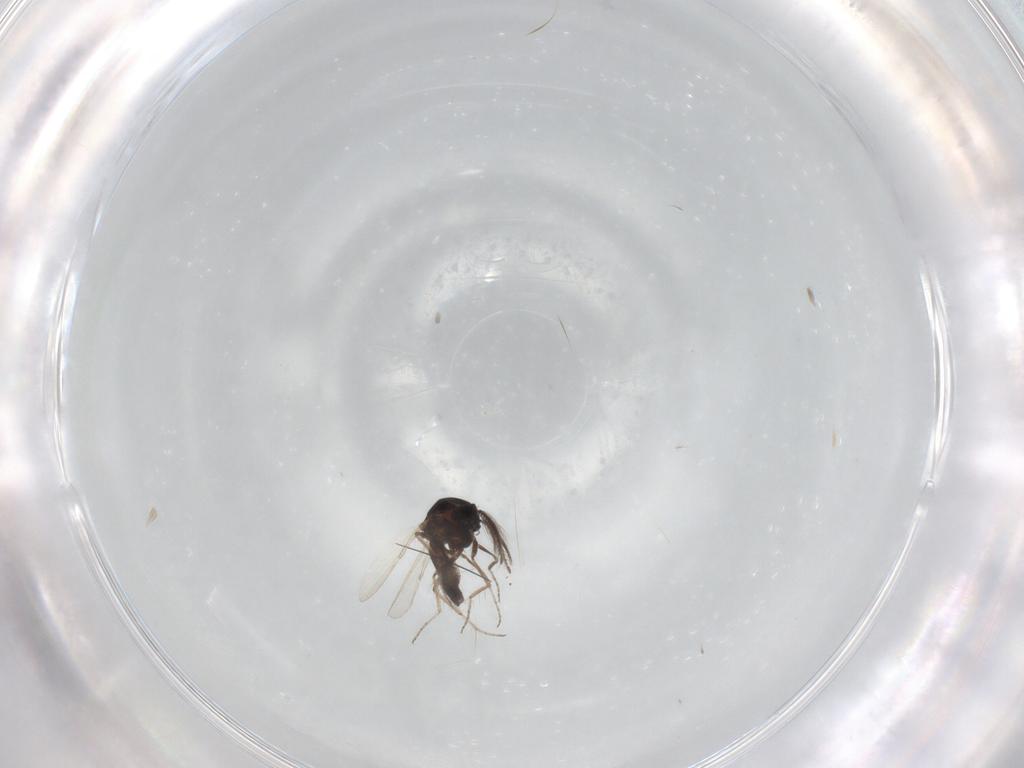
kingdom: Animalia
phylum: Arthropoda
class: Insecta
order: Diptera
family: Ceratopogonidae
